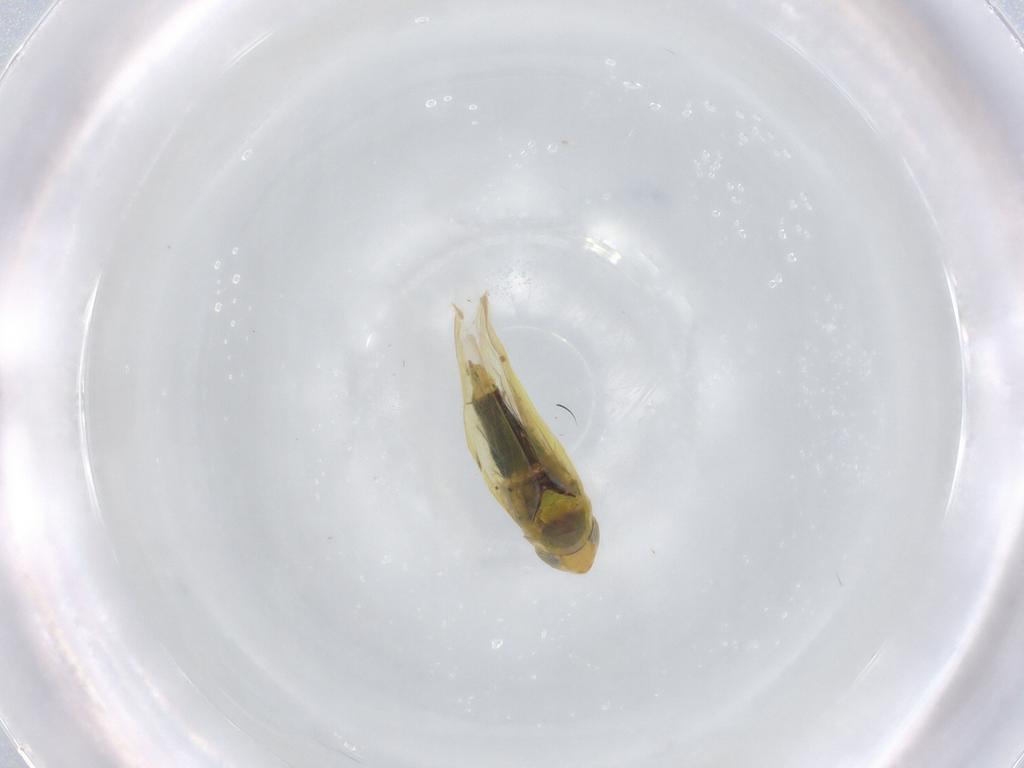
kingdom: Animalia
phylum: Arthropoda
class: Insecta
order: Hemiptera
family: Cicadellidae
